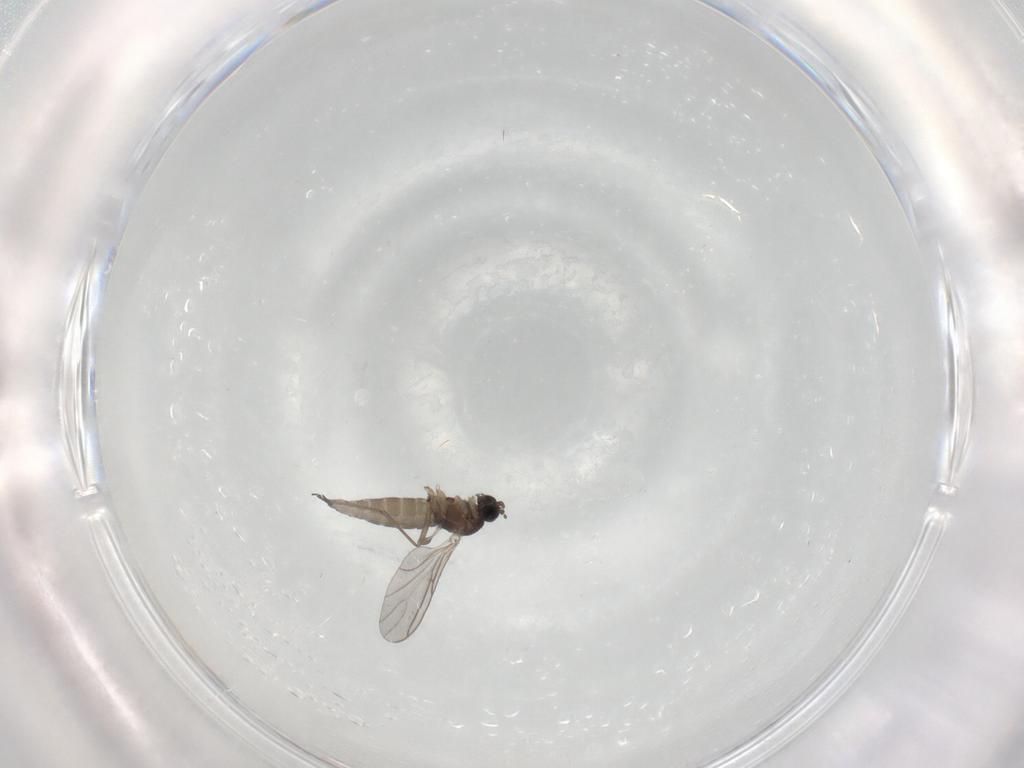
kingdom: Animalia
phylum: Arthropoda
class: Insecta
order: Diptera
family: Sciaridae
